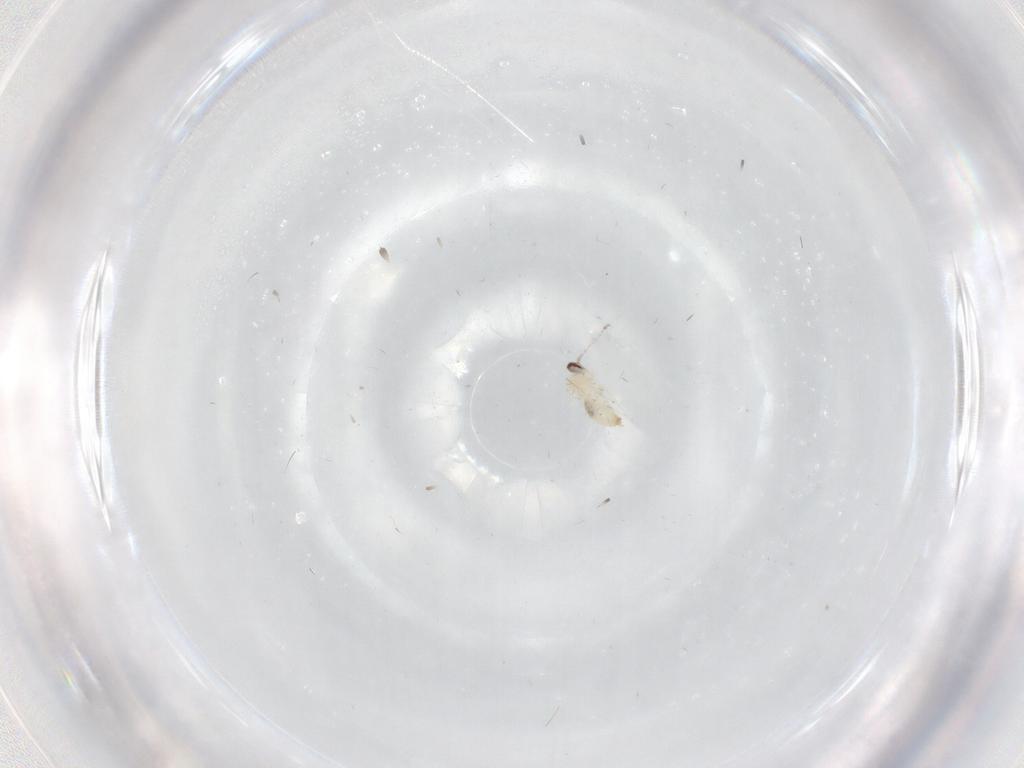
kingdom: Animalia
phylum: Arthropoda
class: Insecta
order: Diptera
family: Cecidomyiidae
